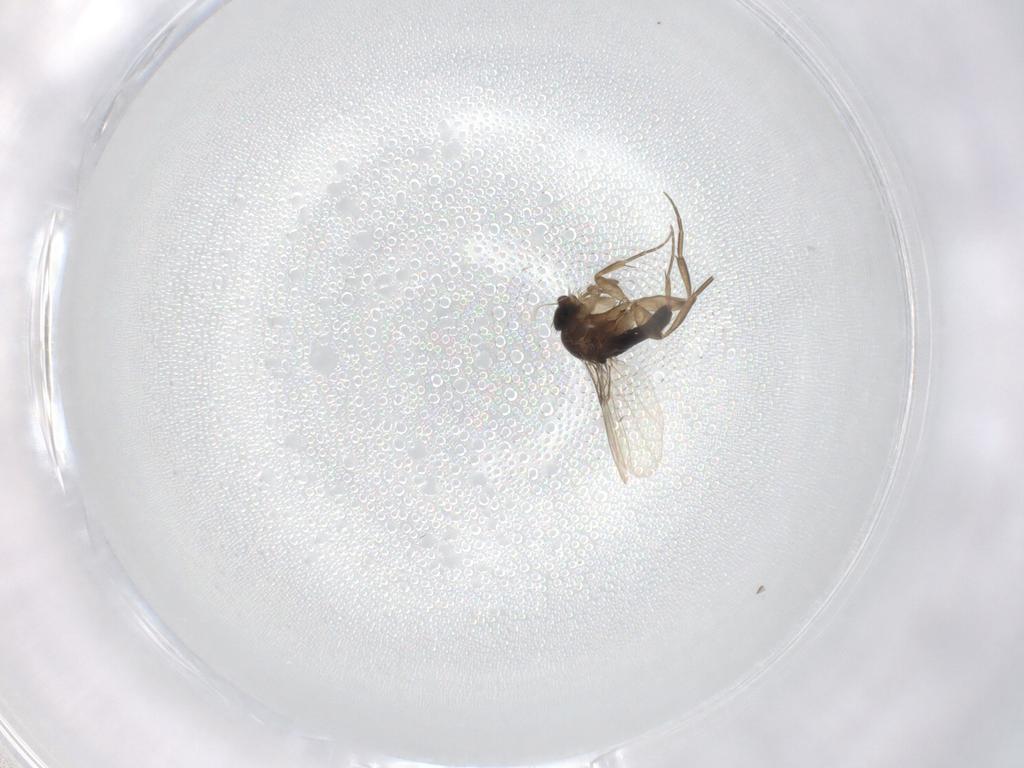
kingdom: Animalia
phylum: Arthropoda
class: Insecta
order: Diptera
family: Phoridae
